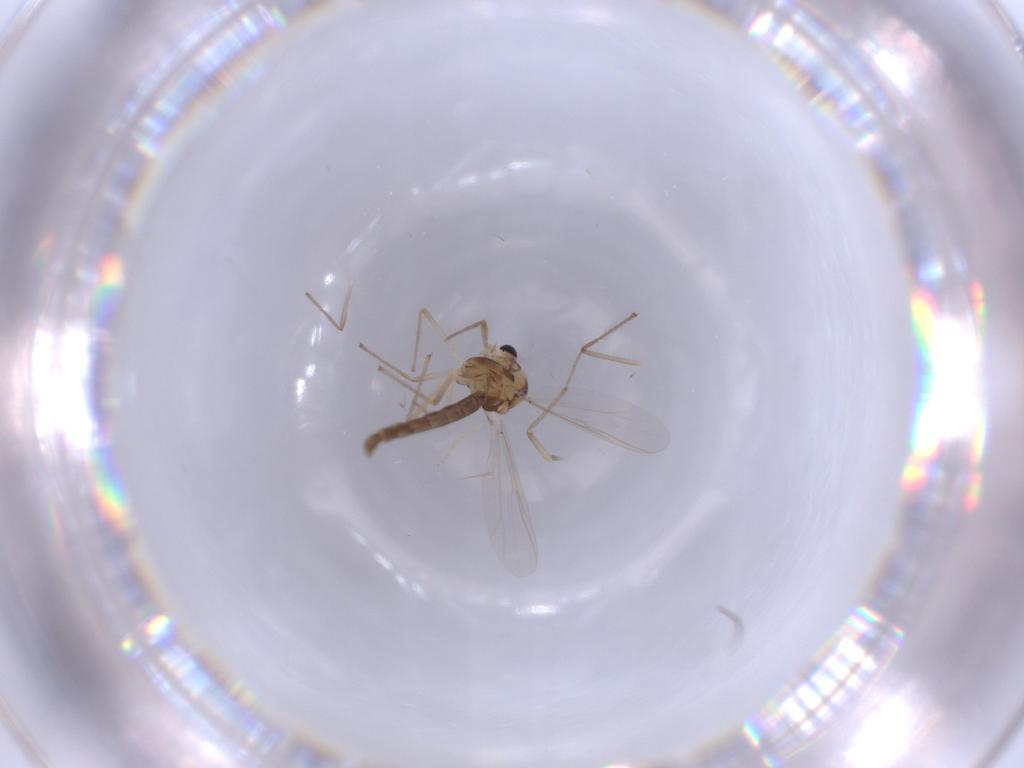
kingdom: Animalia
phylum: Arthropoda
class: Insecta
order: Diptera
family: Chironomidae
